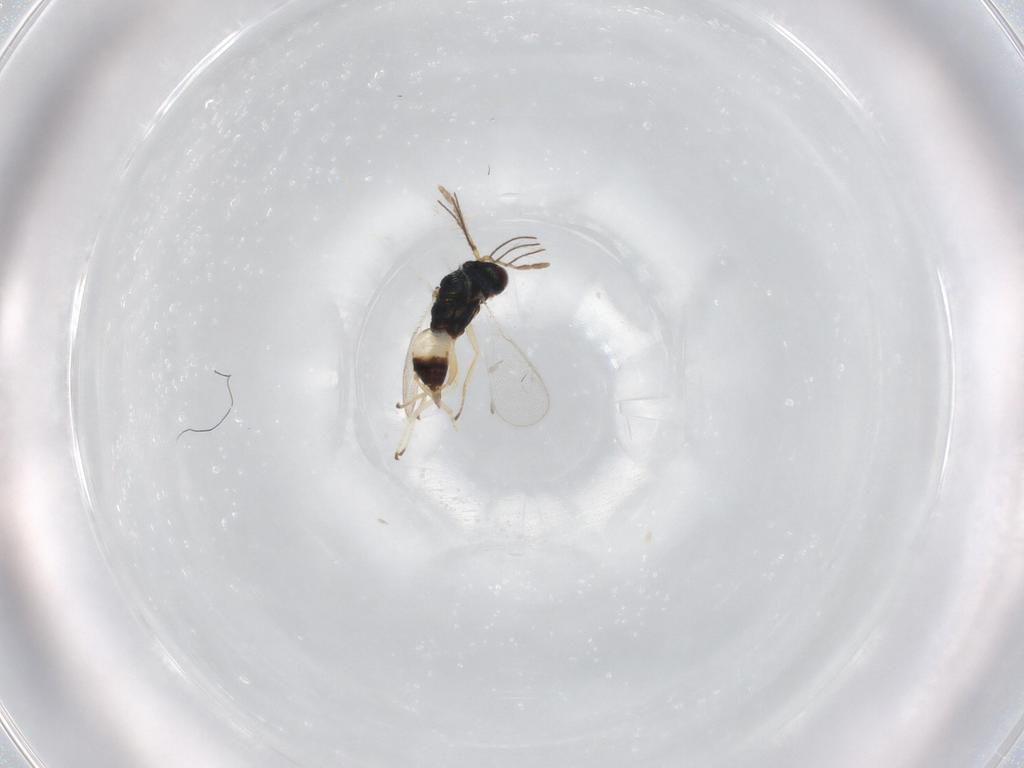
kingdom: Animalia
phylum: Arthropoda
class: Insecta
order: Hymenoptera
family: Eulophidae
